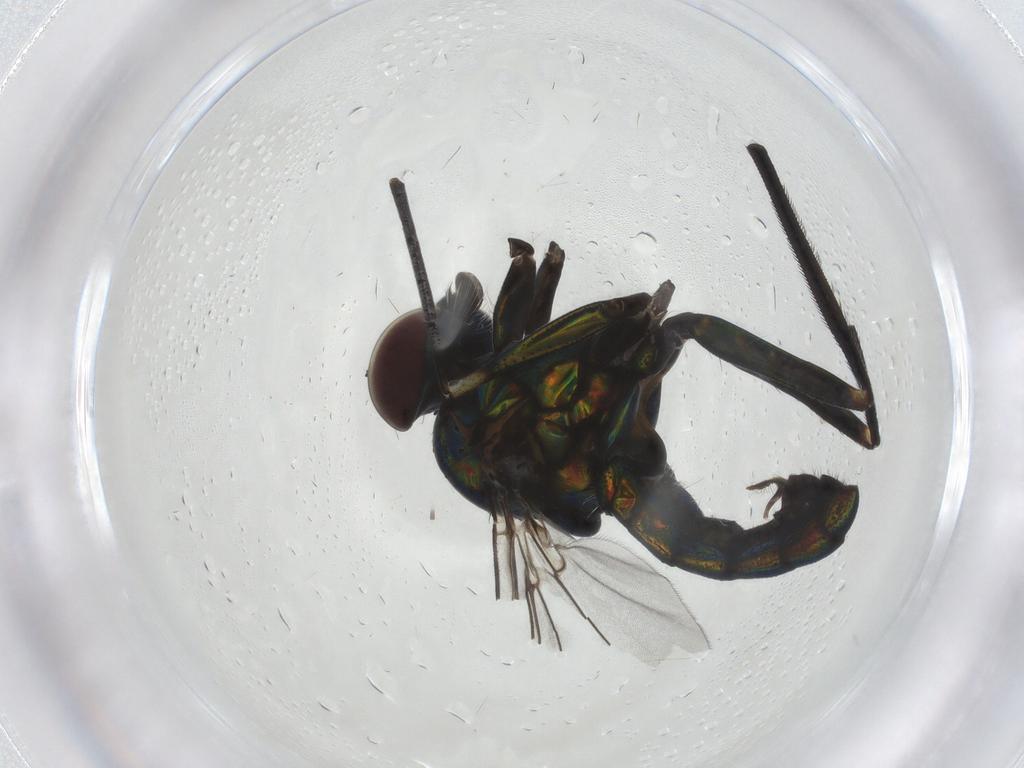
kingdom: Animalia
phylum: Arthropoda
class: Insecta
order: Diptera
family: Dolichopodidae
